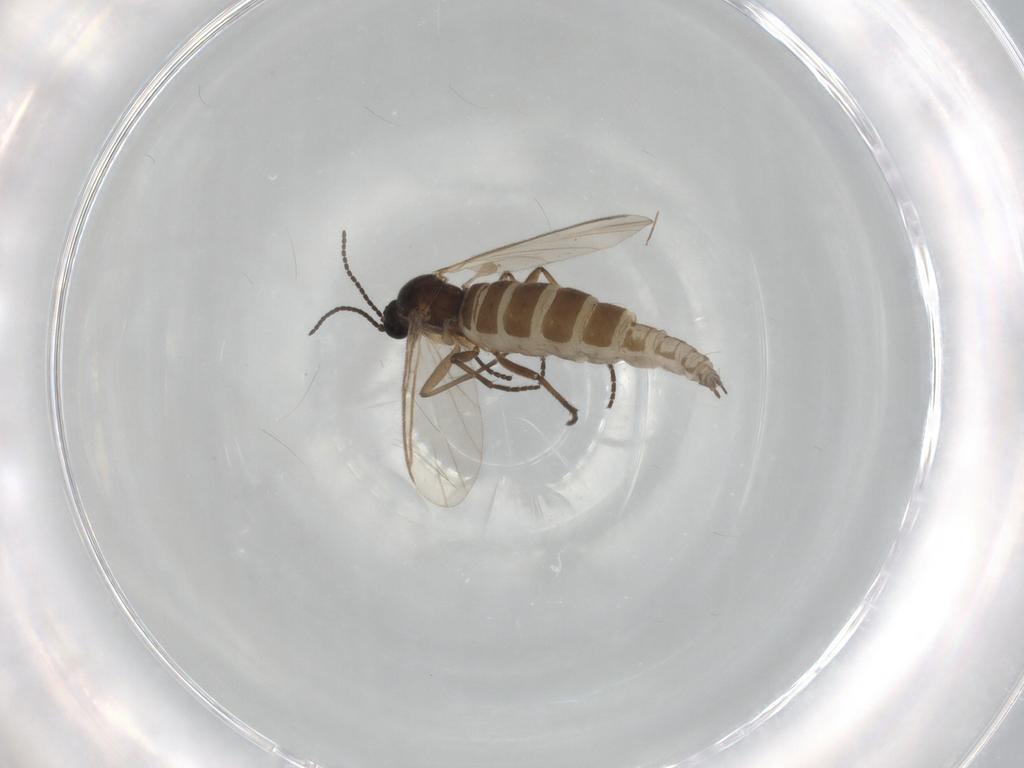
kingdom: Animalia
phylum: Arthropoda
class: Insecta
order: Diptera
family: Sciaridae
